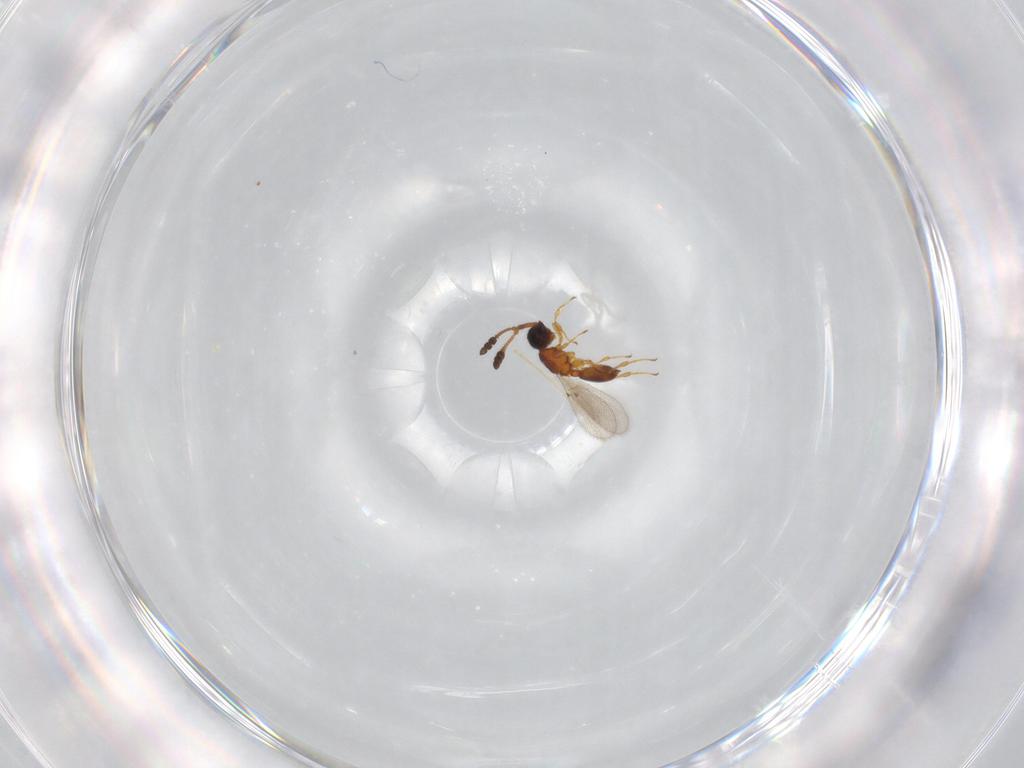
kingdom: Animalia
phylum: Arthropoda
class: Insecta
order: Hymenoptera
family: Diapriidae
